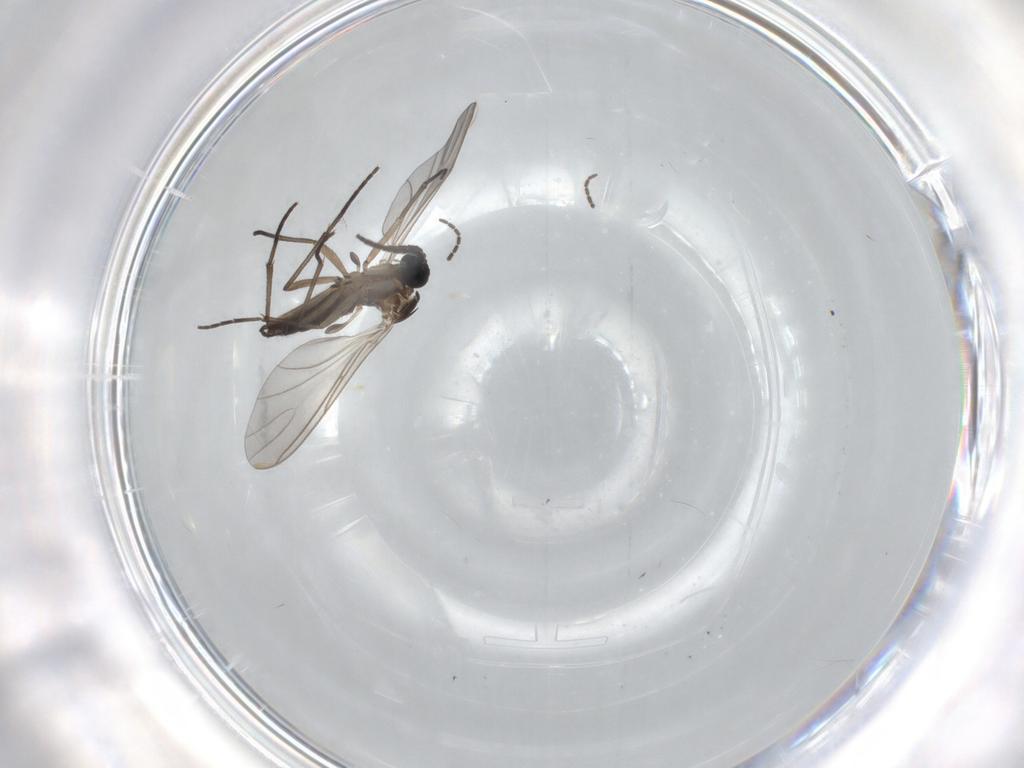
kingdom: Animalia
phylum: Arthropoda
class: Insecta
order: Diptera
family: Sciaridae
